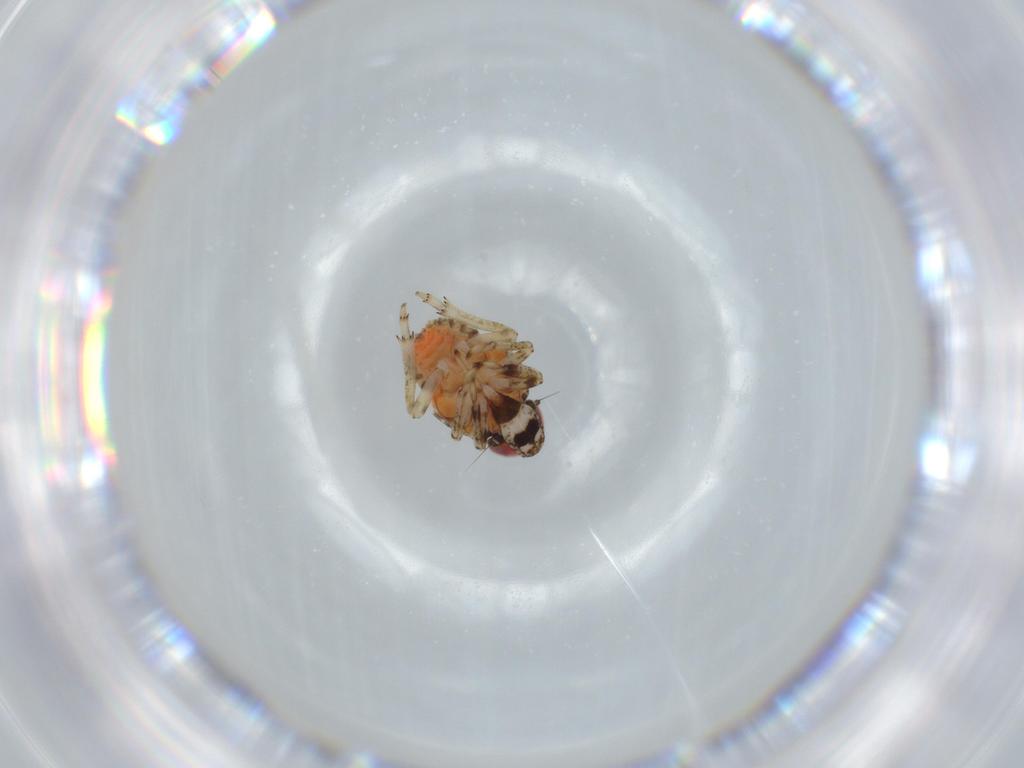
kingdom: Animalia
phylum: Arthropoda
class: Insecta
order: Hemiptera
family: Issidae
